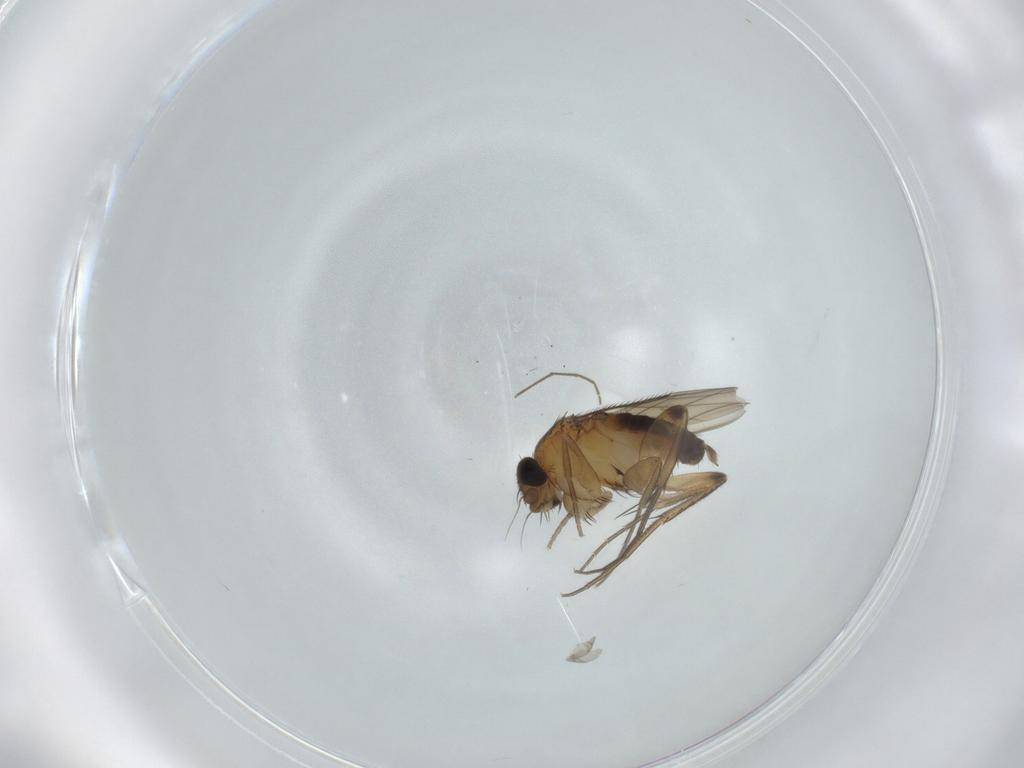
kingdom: Animalia
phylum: Arthropoda
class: Insecta
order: Diptera
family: Phoridae
